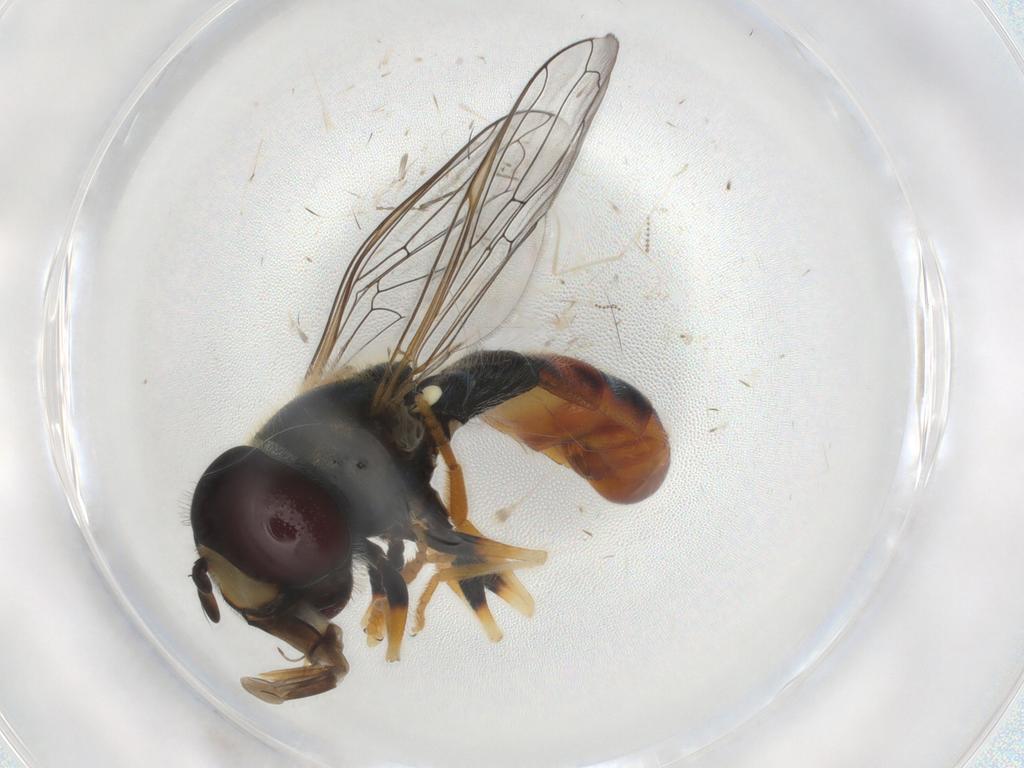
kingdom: Animalia
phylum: Arthropoda
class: Insecta
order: Diptera
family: Syrphidae
